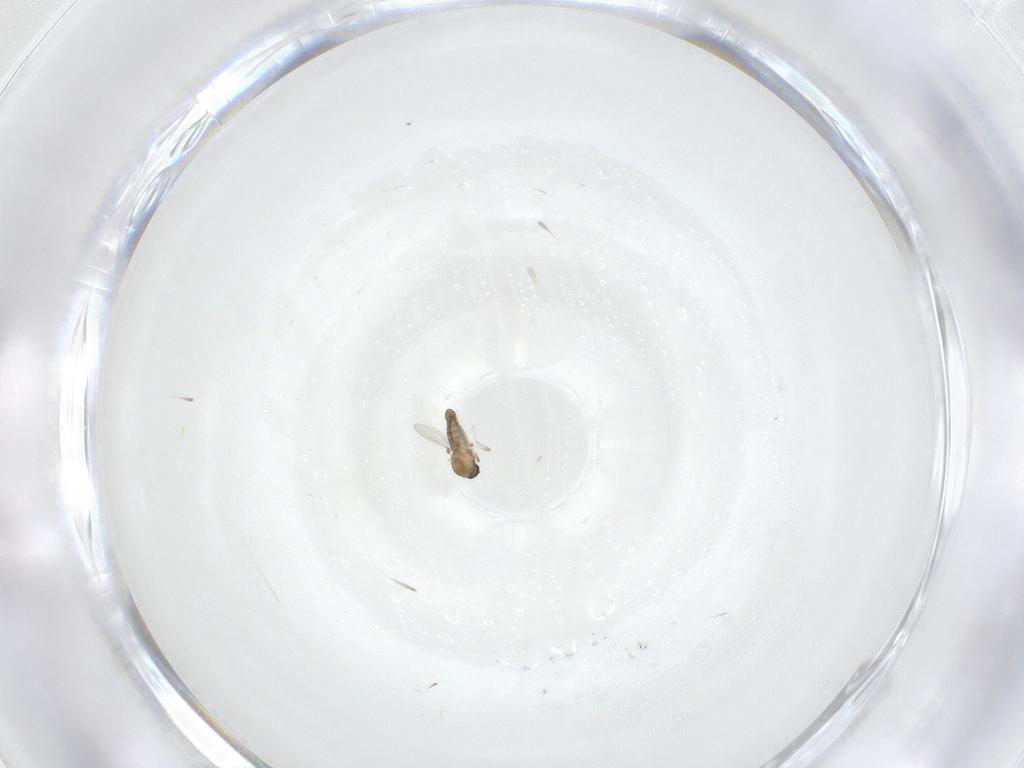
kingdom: Animalia
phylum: Arthropoda
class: Insecta
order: Diptera
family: Ceratopogonidae
